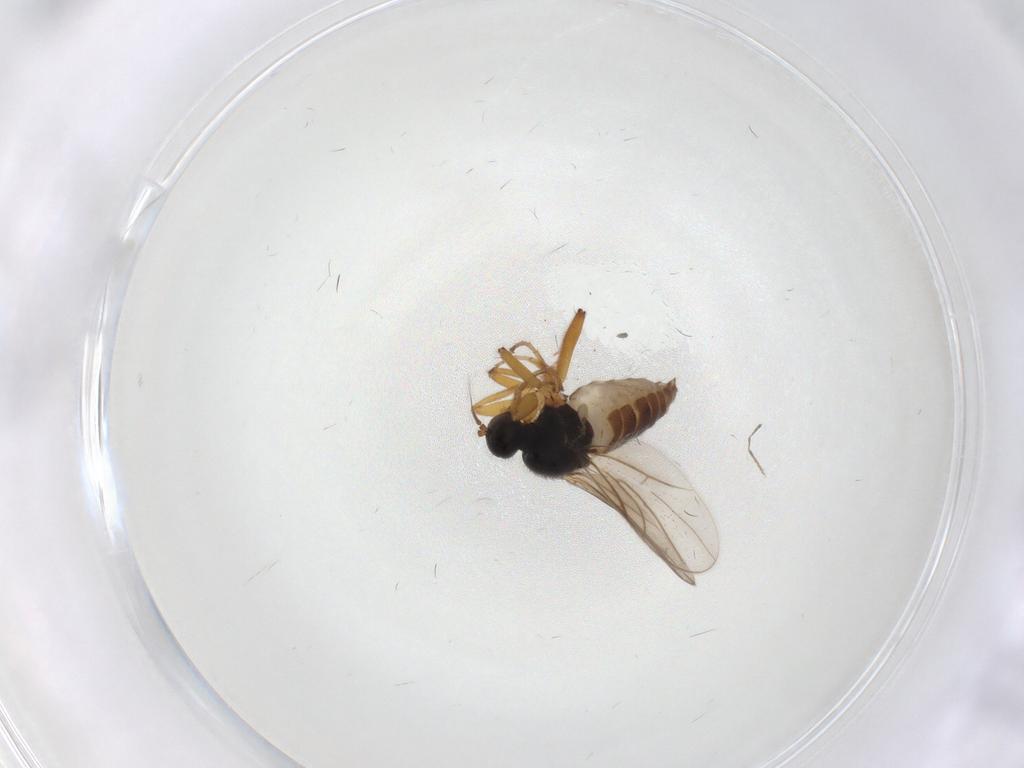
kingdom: Animalia
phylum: Arthropoda
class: Insecta
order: Diptera
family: Hybotidae
